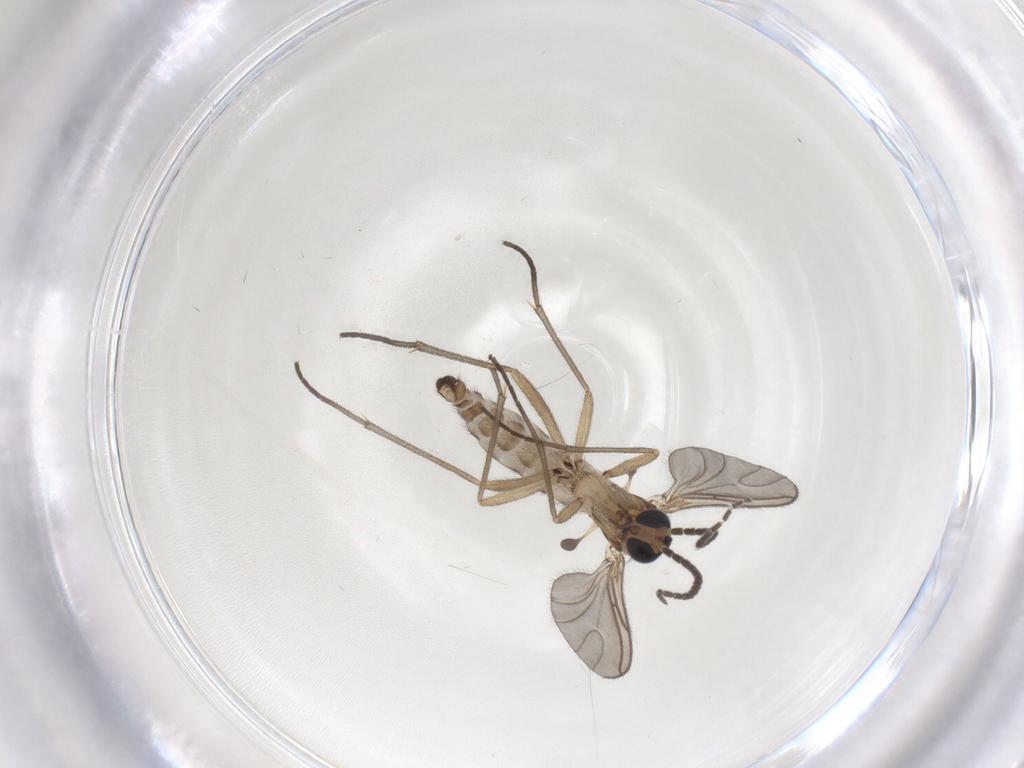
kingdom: Animalia
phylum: Arthropoda
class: Insecta
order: Diptera
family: Sciaridae
